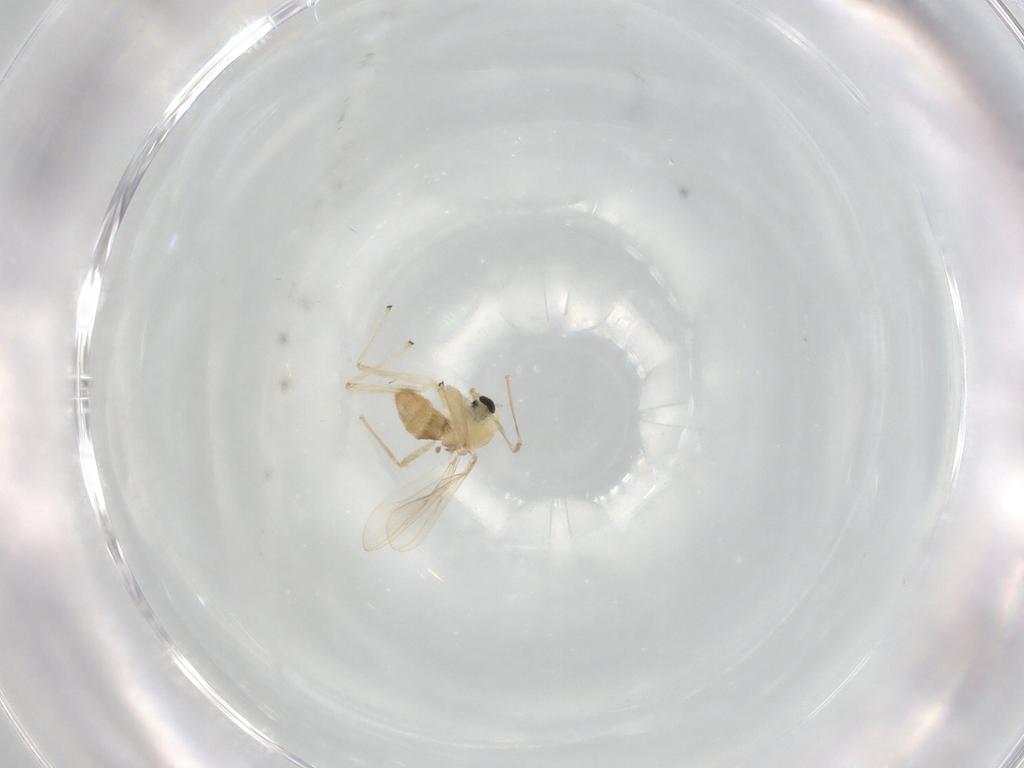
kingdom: Animalia
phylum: Arthropoda
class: Insecta
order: Diptera
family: Chironomidae
